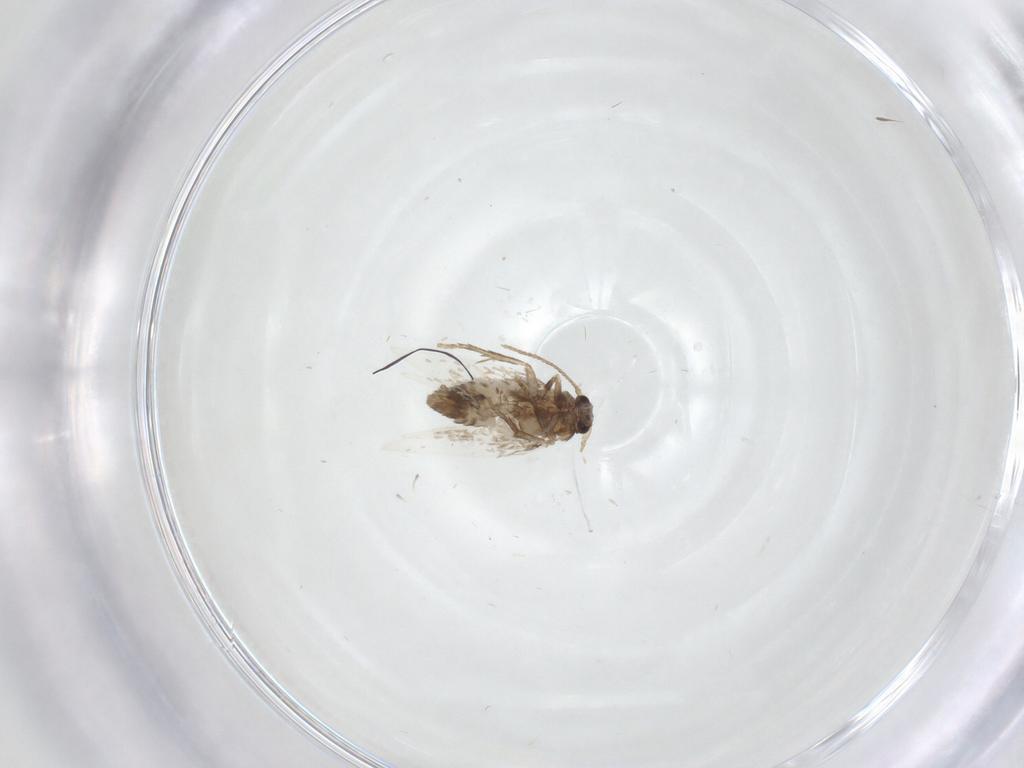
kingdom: Animalia
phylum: Arthropoda
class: Insecta
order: Lepidoptera
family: Nepticulidae
